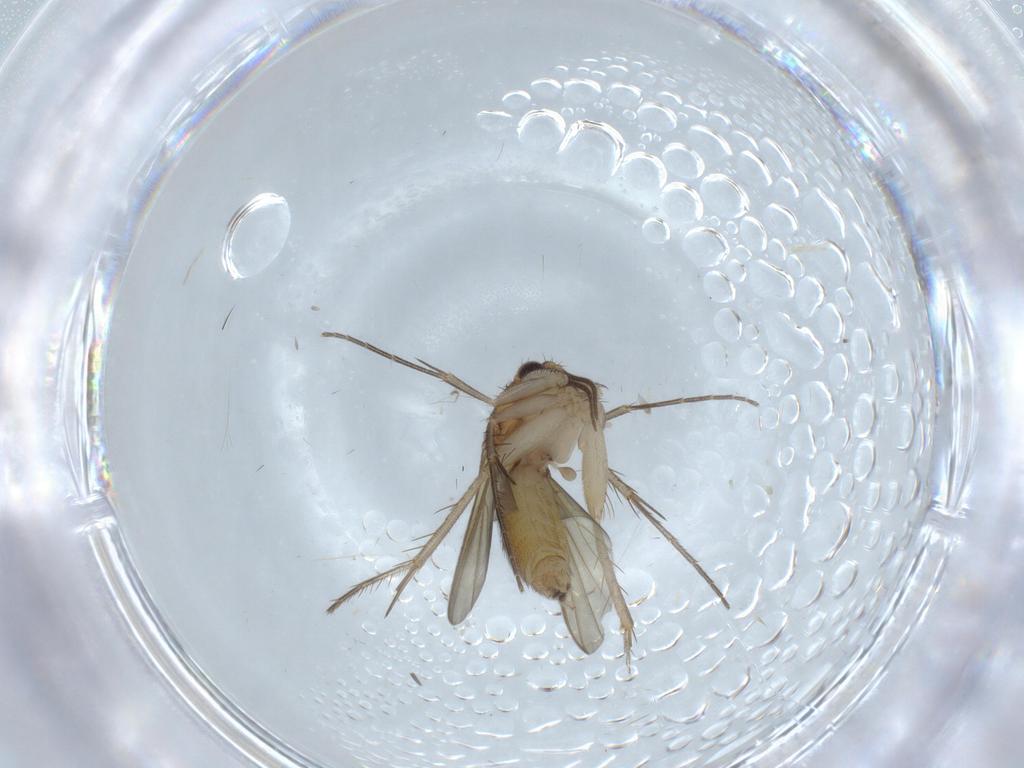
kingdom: Animalia
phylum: Arthropoda
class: Insecta
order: Diptera
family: Mycetophilidae
